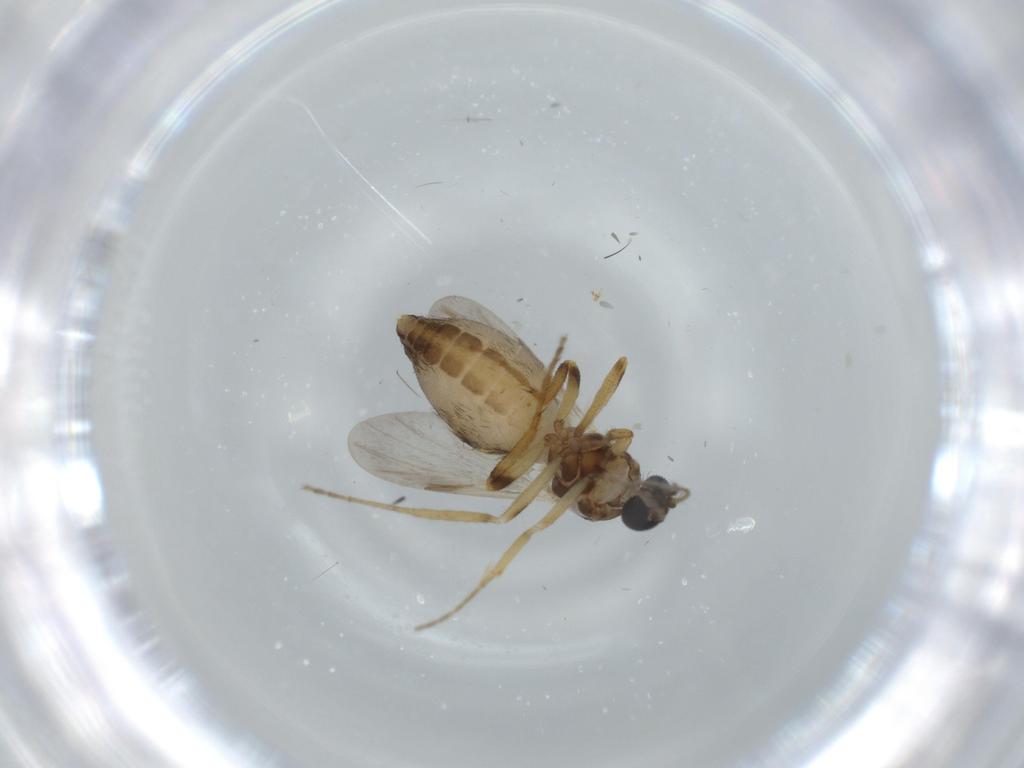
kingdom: Animalia
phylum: Arthropoda
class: Insecta
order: Diptera
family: Ceratopogonidae
